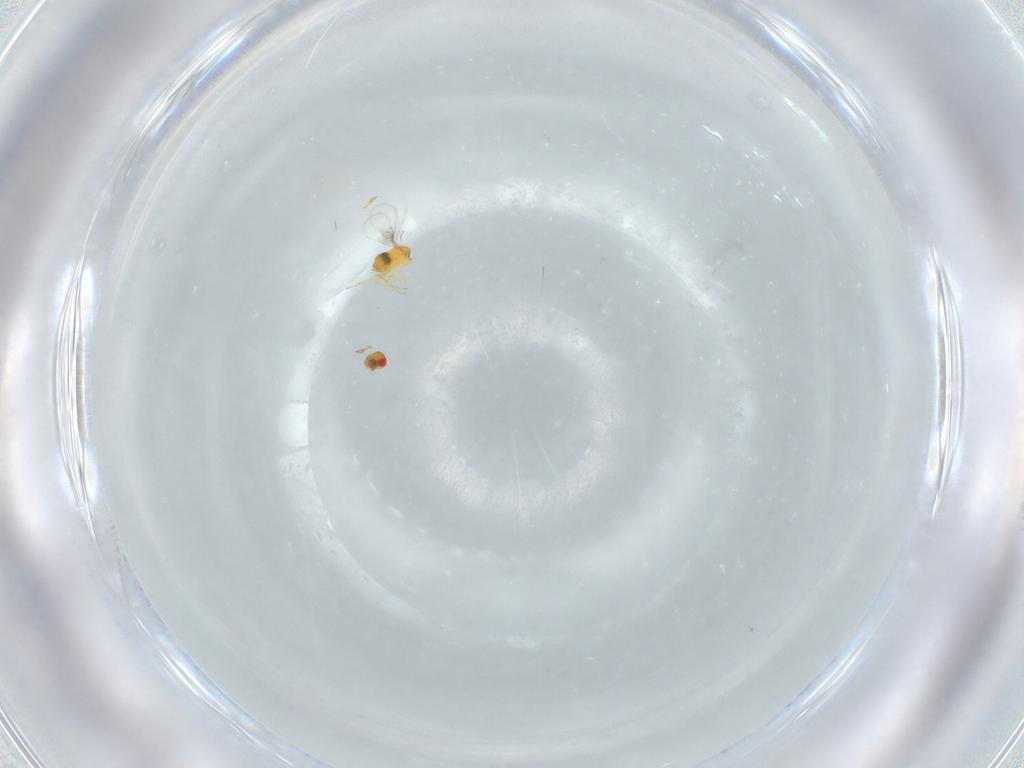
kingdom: Animalia
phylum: Arthropoda
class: Insecta
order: Hymenoptera
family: Trichogrammatidae
